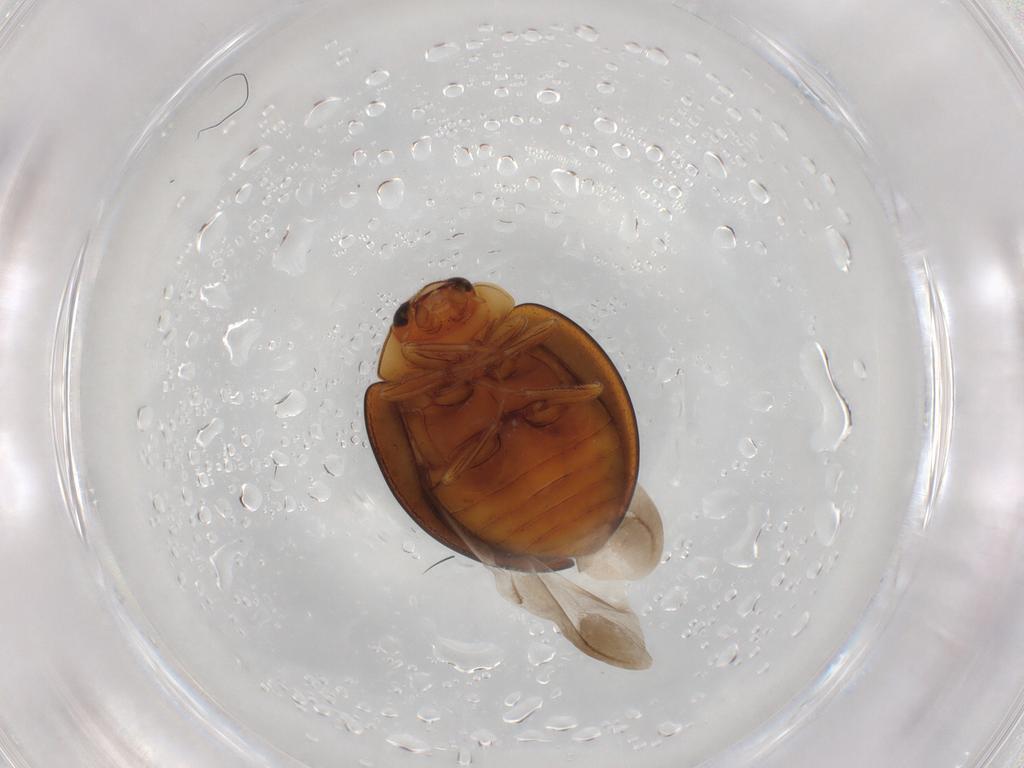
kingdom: Animalia
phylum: Arthropoda
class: Insecta
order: Coleoptera
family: Coccinellidae
